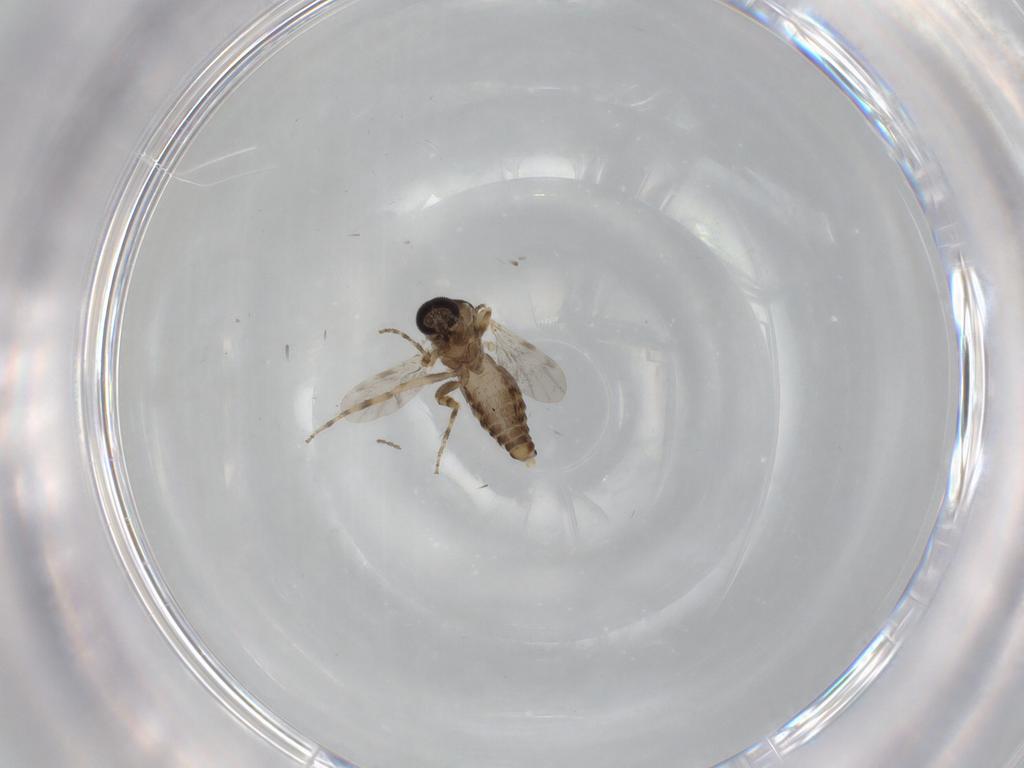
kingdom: Animalia
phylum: Arthropoda
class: Insecta
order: Diptera
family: Ceratopogonidae
